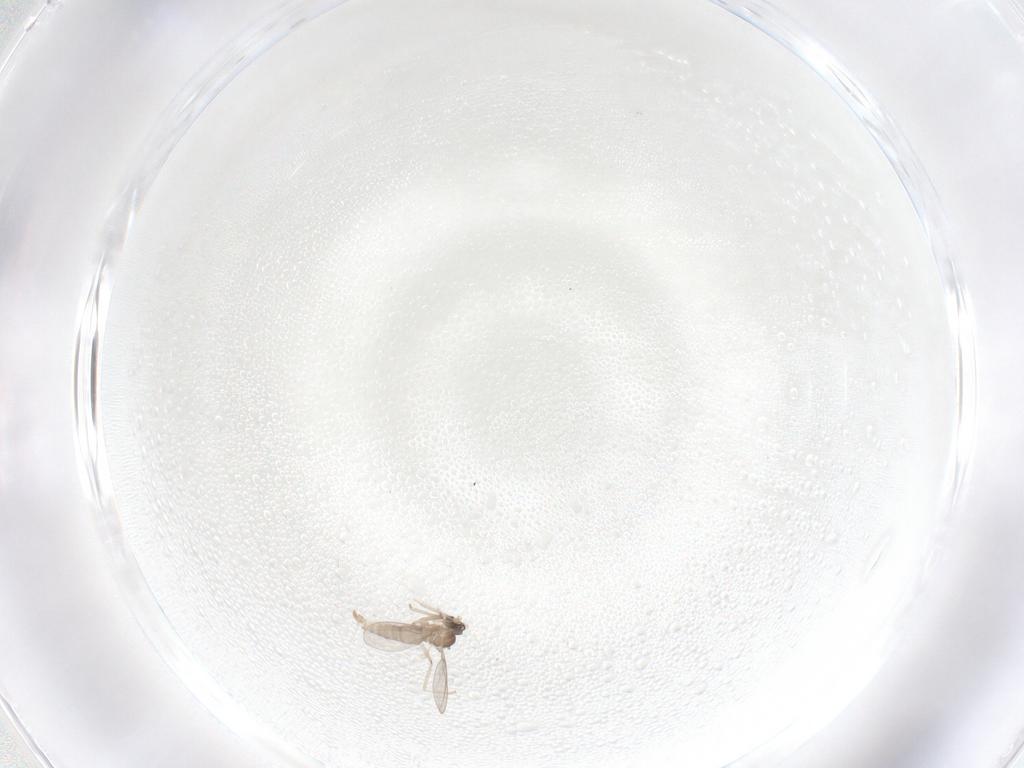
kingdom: Animalia
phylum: Arthropoda
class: Insecta
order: Diptera
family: Cecidomyiidae
